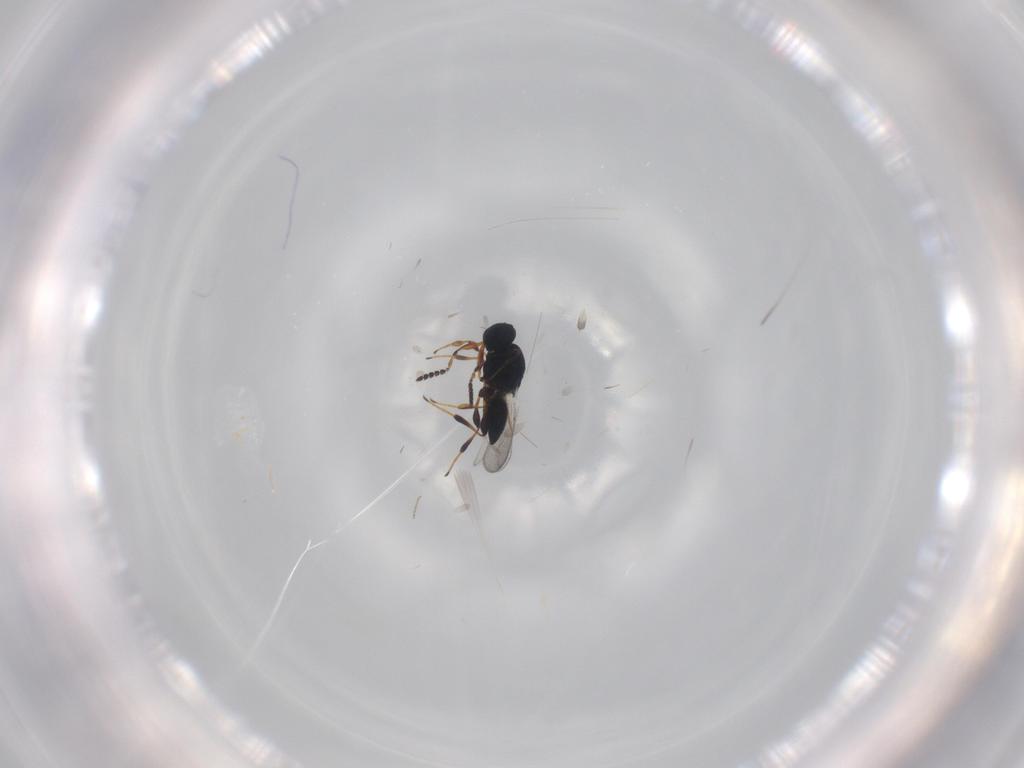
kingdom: Animalia
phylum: Arthropoda
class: Insecta
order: Hymenoptera
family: Platygastridae
